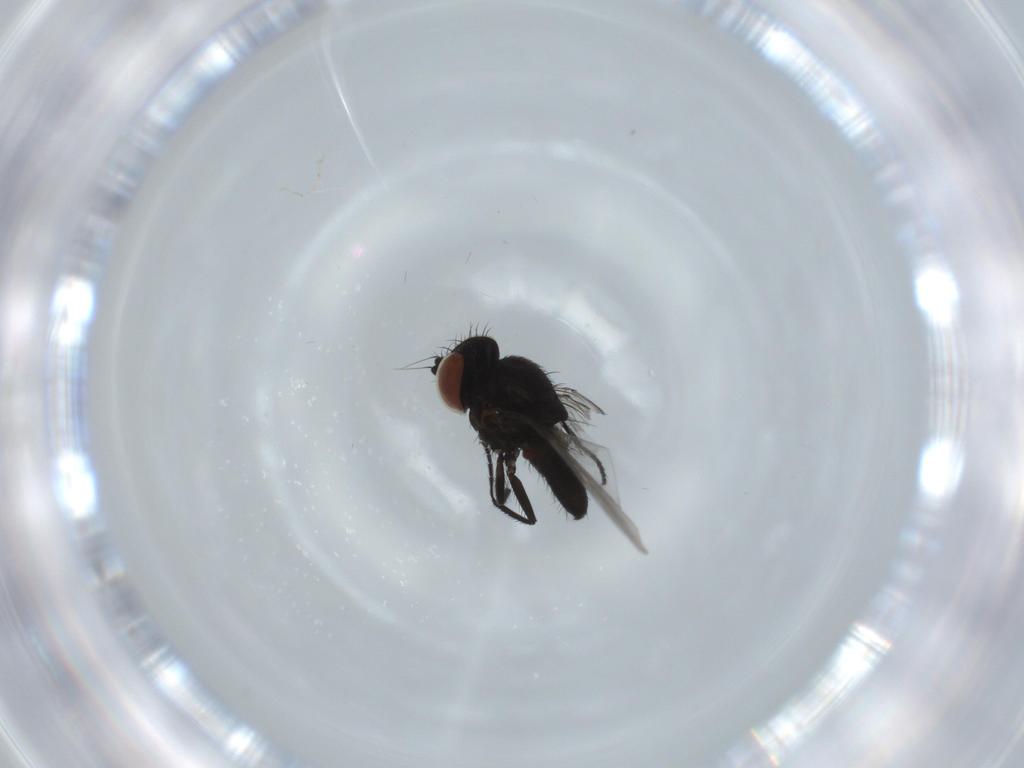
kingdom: Animalia
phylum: Arthropoda
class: Insecta
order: Diptera
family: Milichiidae
